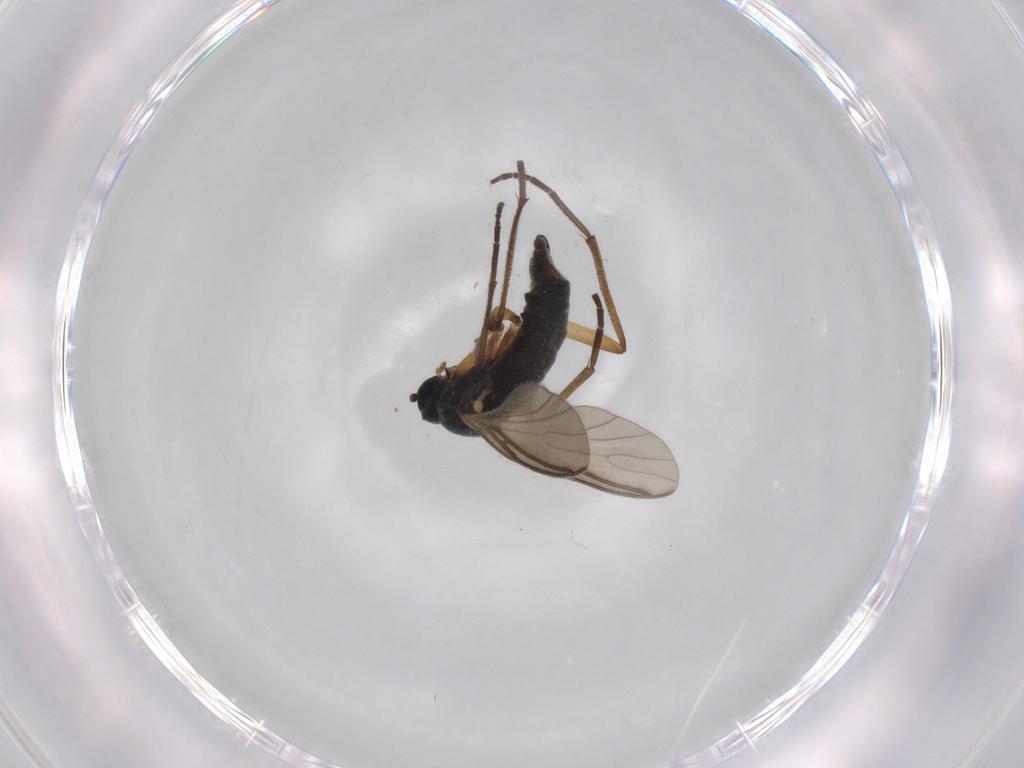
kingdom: Animalia
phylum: Arthropoda
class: Insecta
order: Diptera
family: Sciaridae
